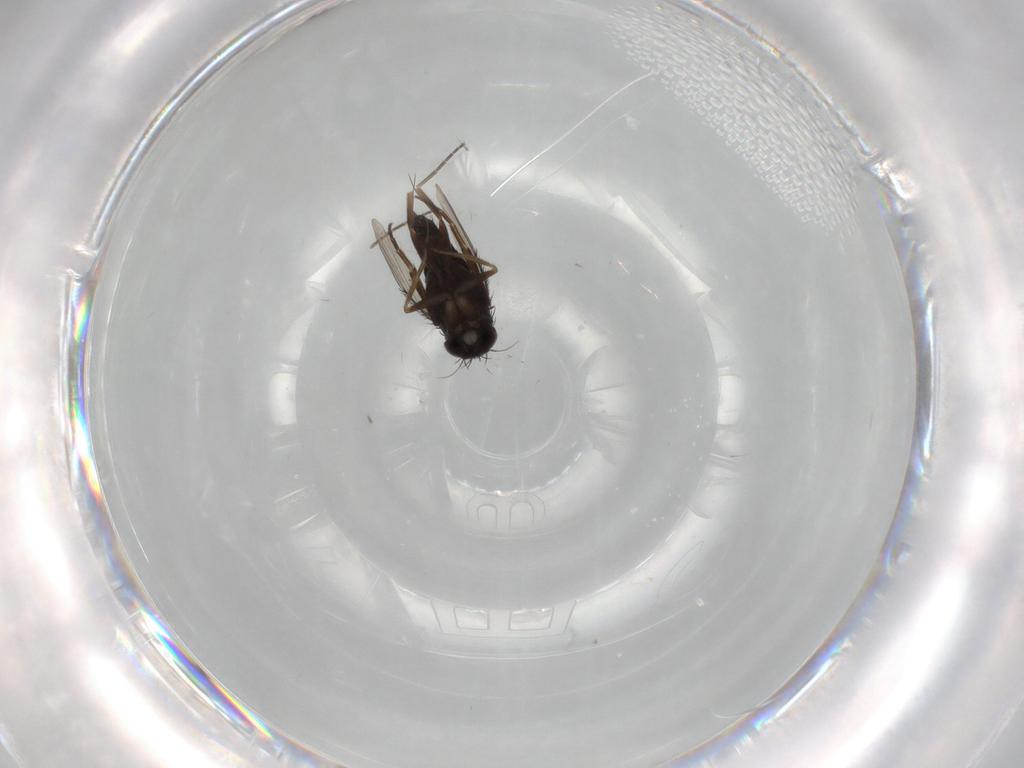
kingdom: Animalia
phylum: Arthropoda
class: Insecta
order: Diptera
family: Phoridae
